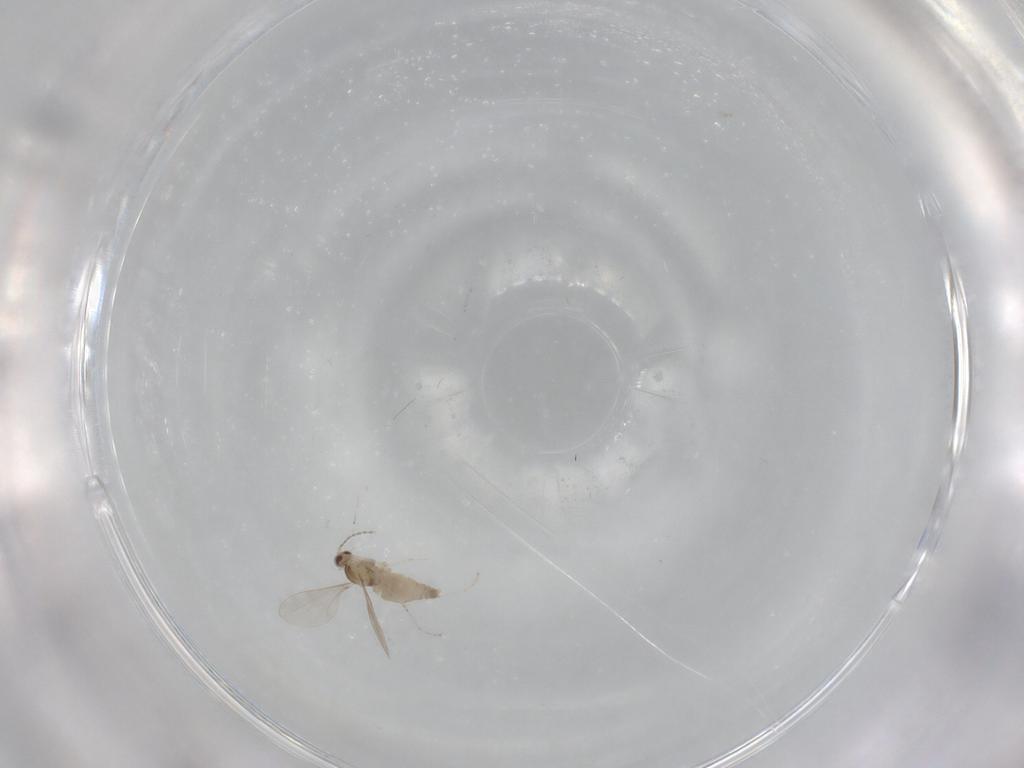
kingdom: Animalia
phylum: Arthropoda
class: Insecta
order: Diptera
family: Cecidomyiidae
